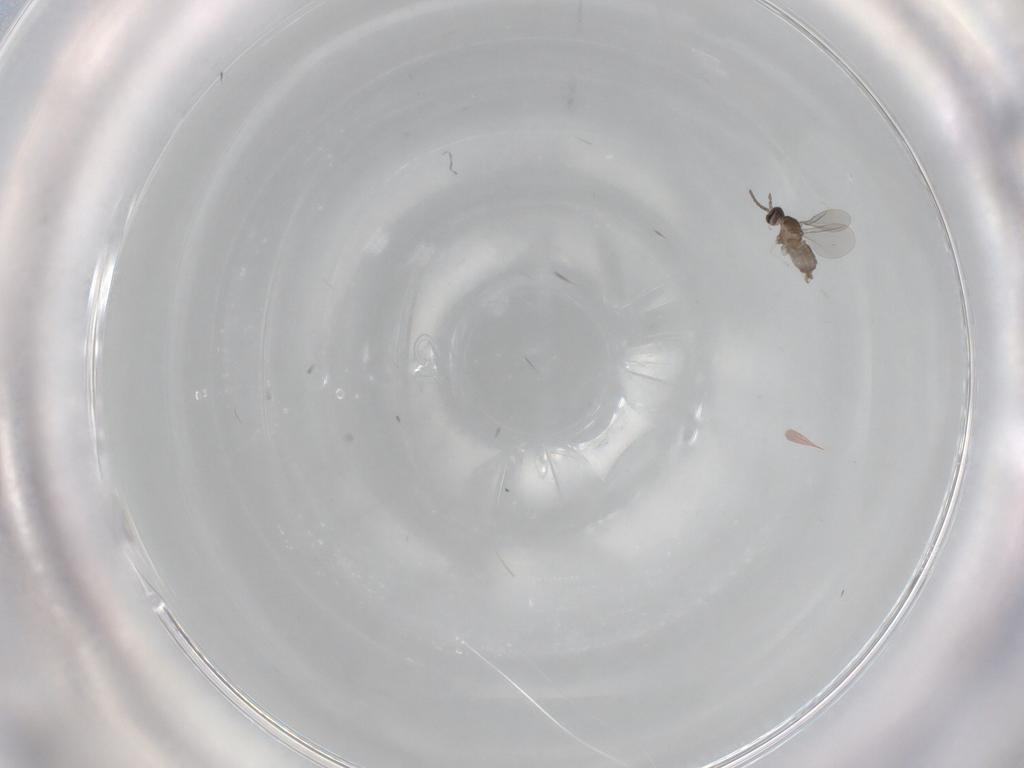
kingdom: Animalia
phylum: Arthropoda
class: Insecta
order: Diptera
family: Cecidomyiidae
